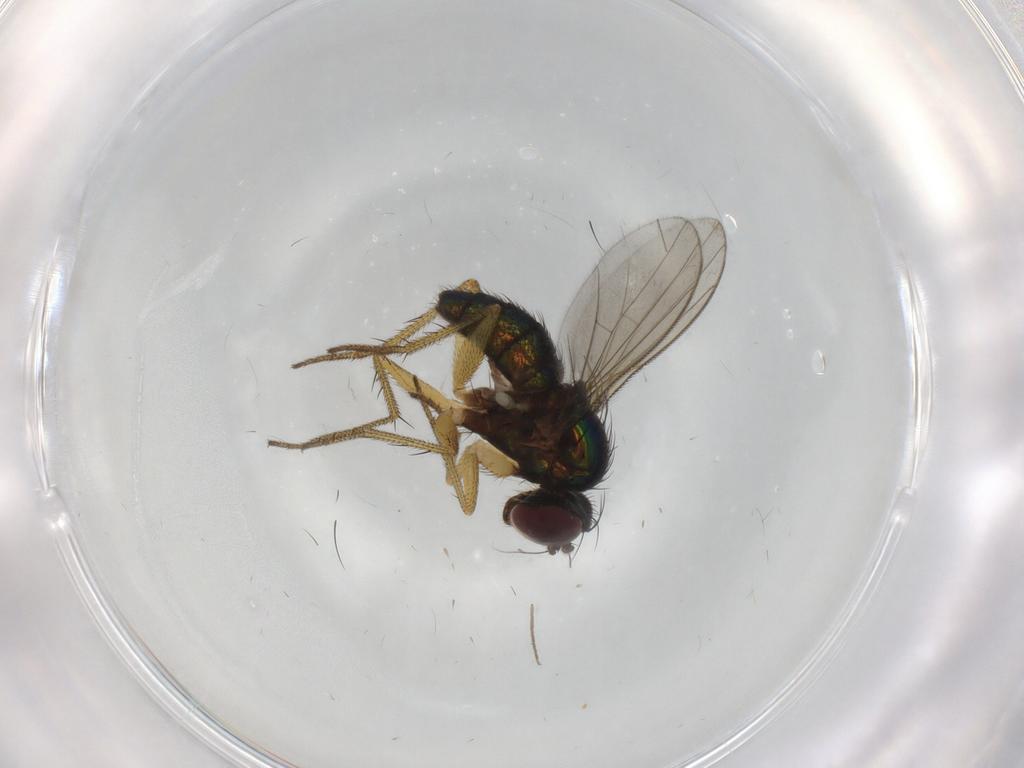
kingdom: Animalia
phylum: Arthropoda
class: Insecta
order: Diptera
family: Dolichopodidae
